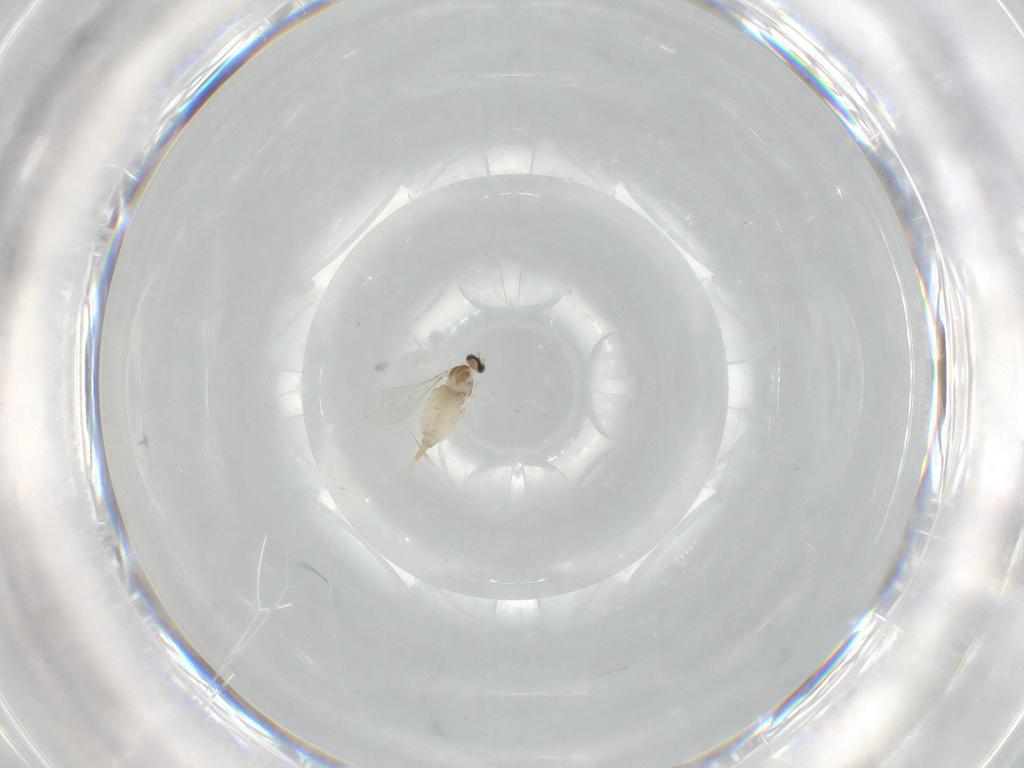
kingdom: Animalia
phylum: Arthropoda
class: Insecta
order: Diptera
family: Cecidomyiidae
